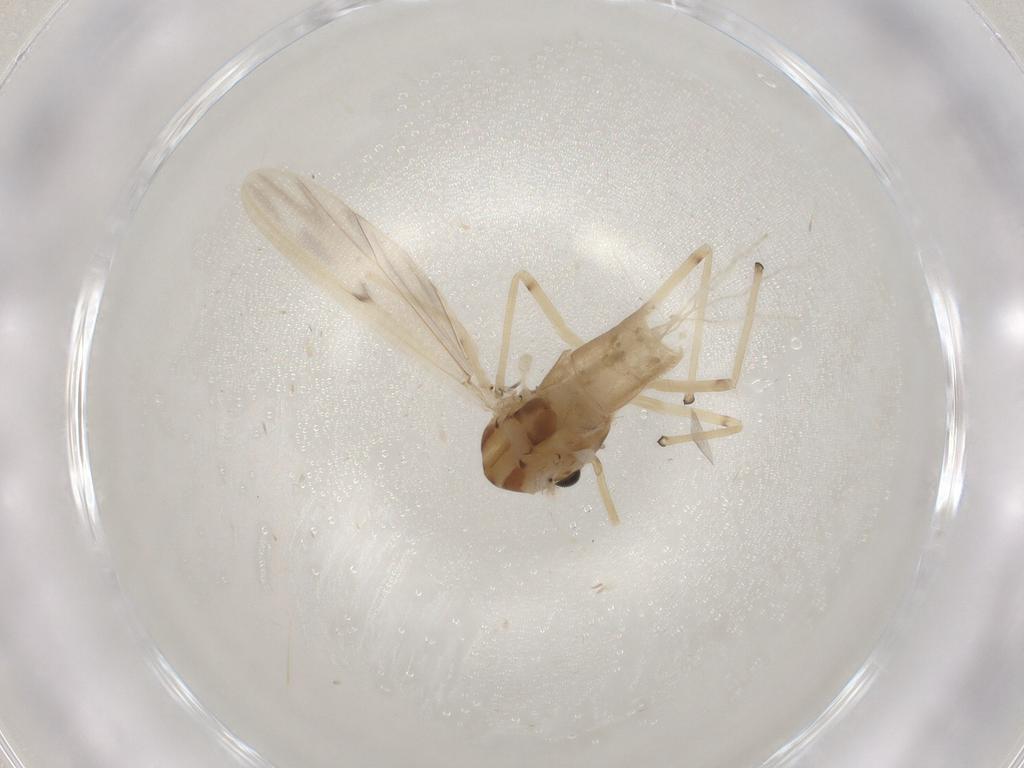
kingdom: Animalia
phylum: Arthropoda
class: Insecta
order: Diptera
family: Chironomidae
